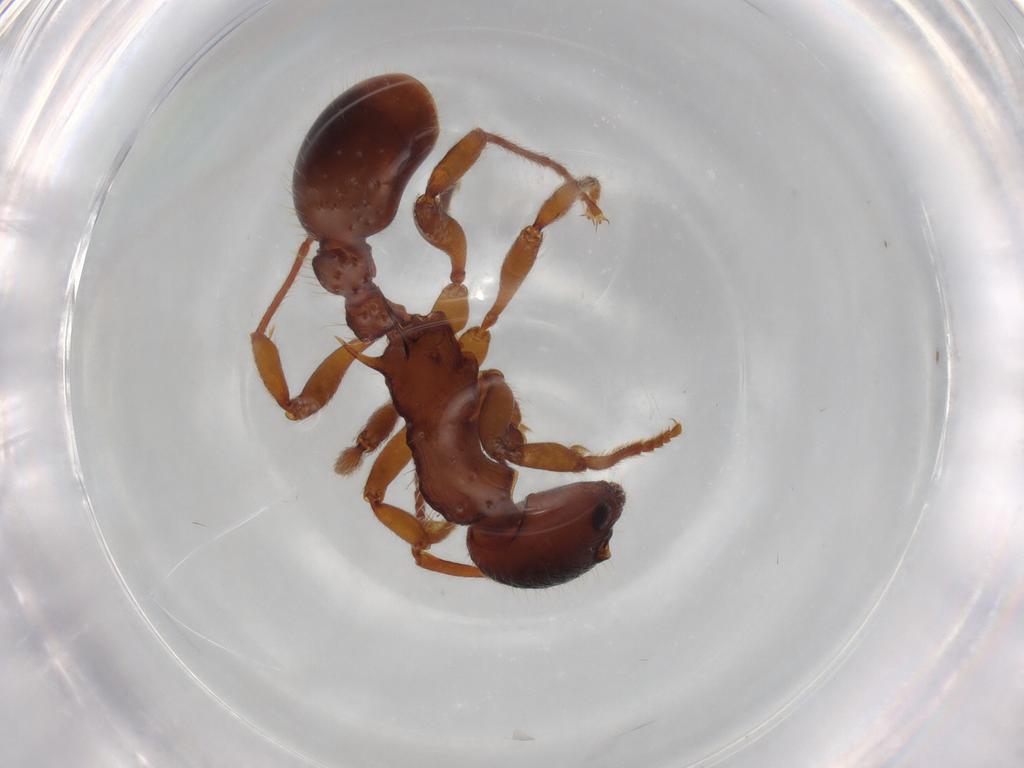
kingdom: Animalia
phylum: Arthropoda
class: Insecta
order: Hymenoptera
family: Formicidae
